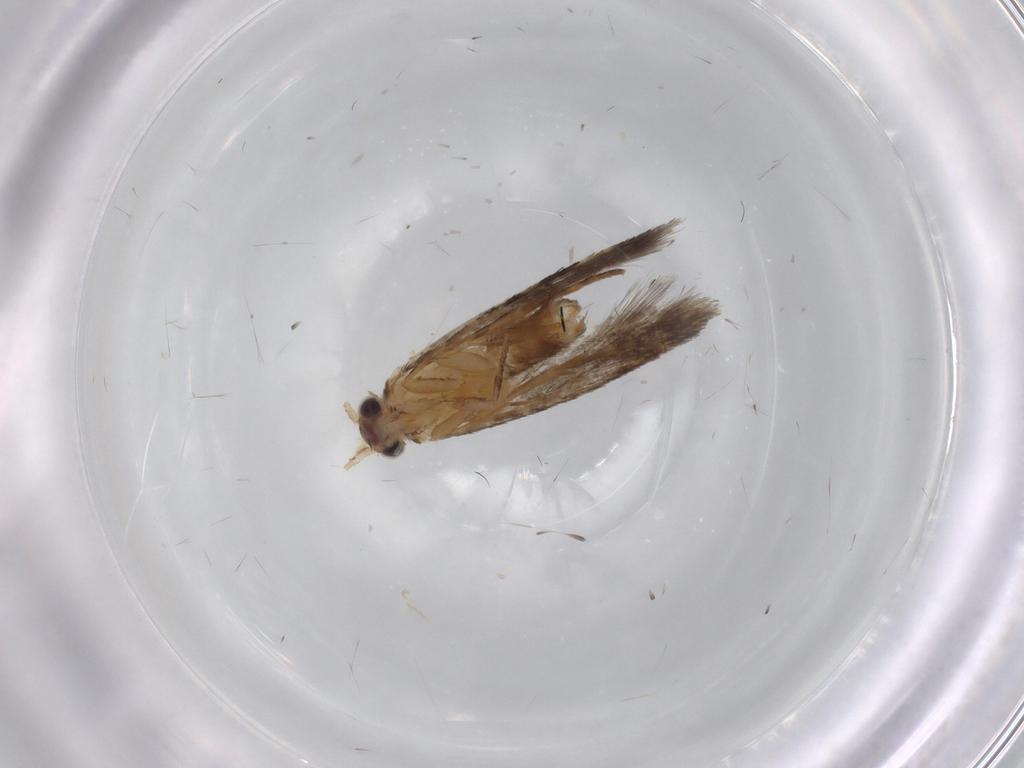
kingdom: Animalia
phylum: Arthropoda
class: Insecta
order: Lepidoptera
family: Tineidae
